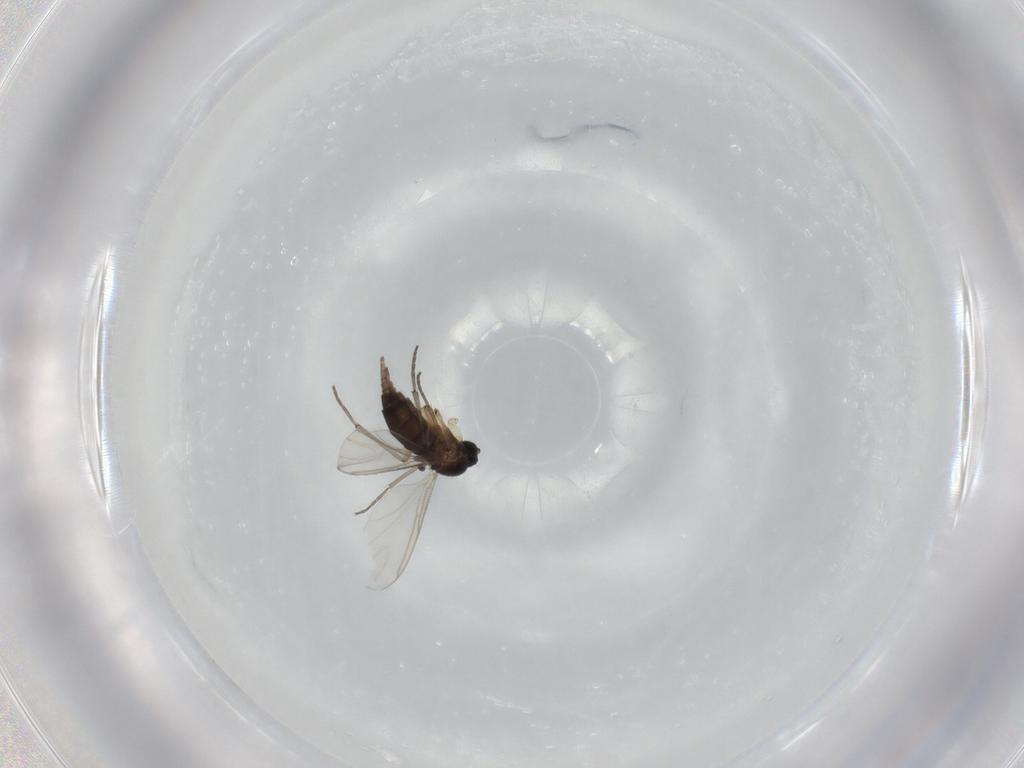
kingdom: Animalia
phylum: Arthropoda
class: Insecta
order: Diptera
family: Sciaridae
